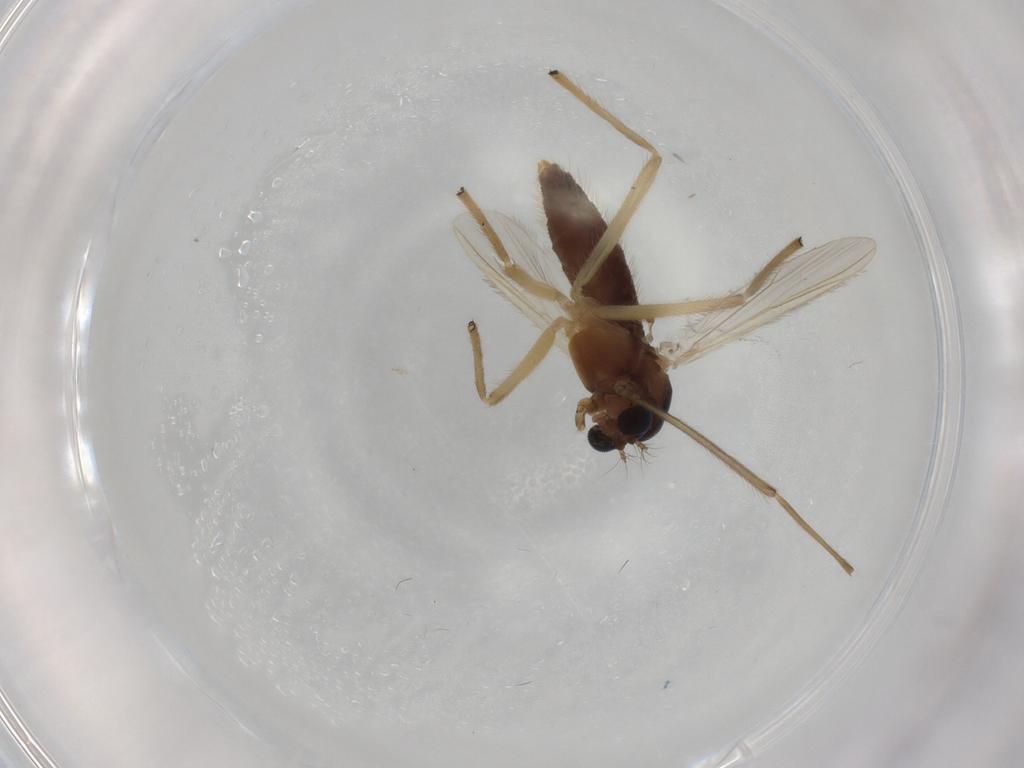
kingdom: Animalia
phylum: Arthropoda
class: Insecta
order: Diptera
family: Chironomidae
